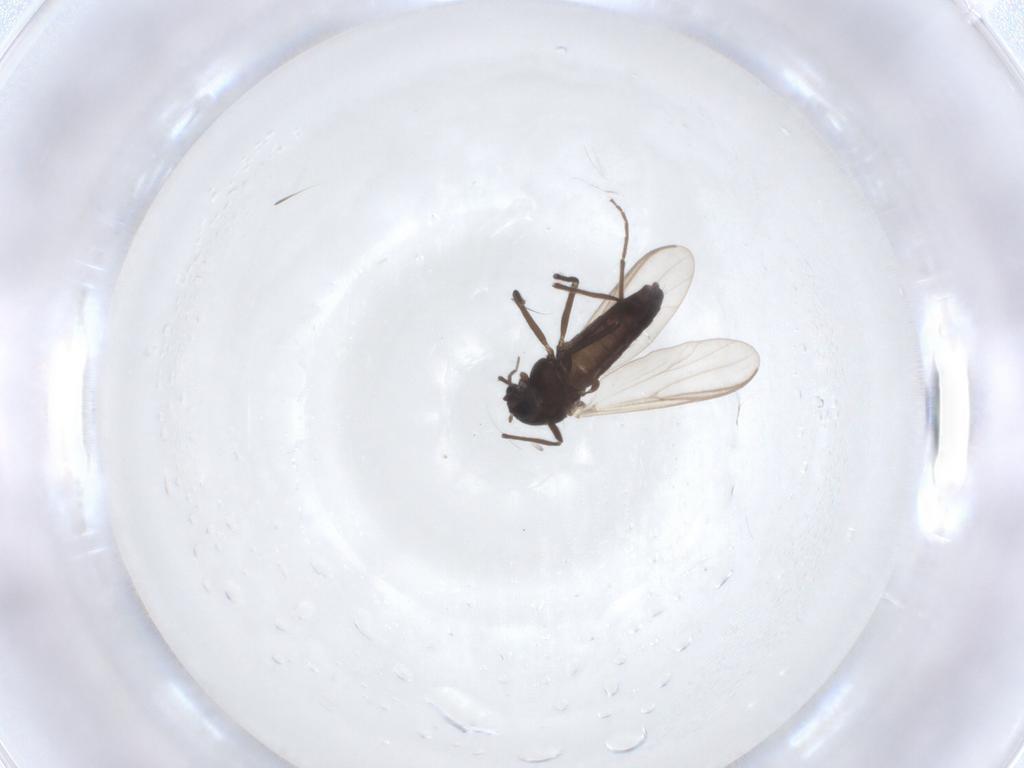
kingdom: Animalia
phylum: Arthropoda
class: Insecta
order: Diptera
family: Chironomidae
